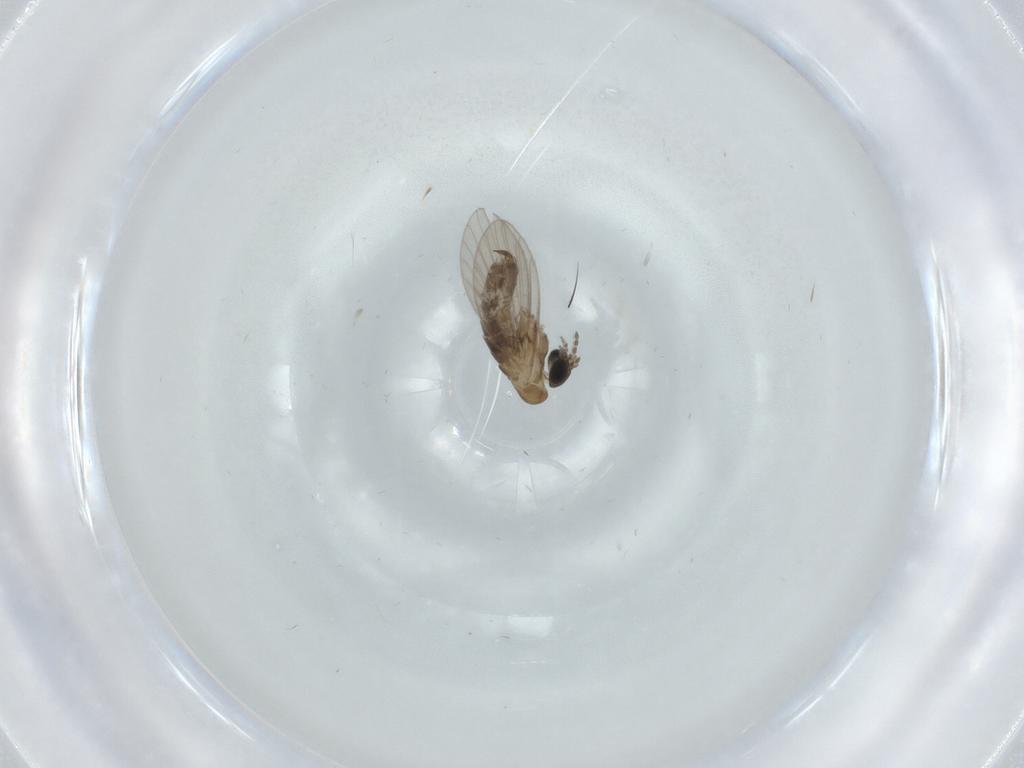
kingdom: Animalia
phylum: Arthropoda
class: Insecta
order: Diptera
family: Psychodidae
